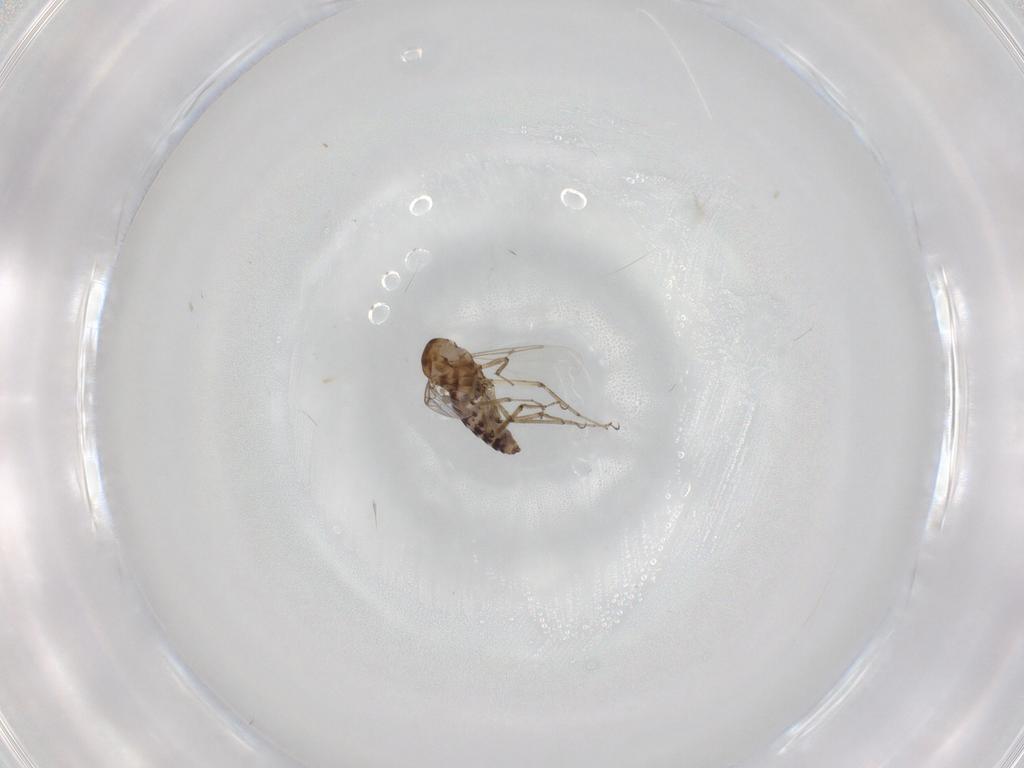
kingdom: Animalia
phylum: Arthropoda
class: Insecta
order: Diptera
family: Ceratopogonidae
